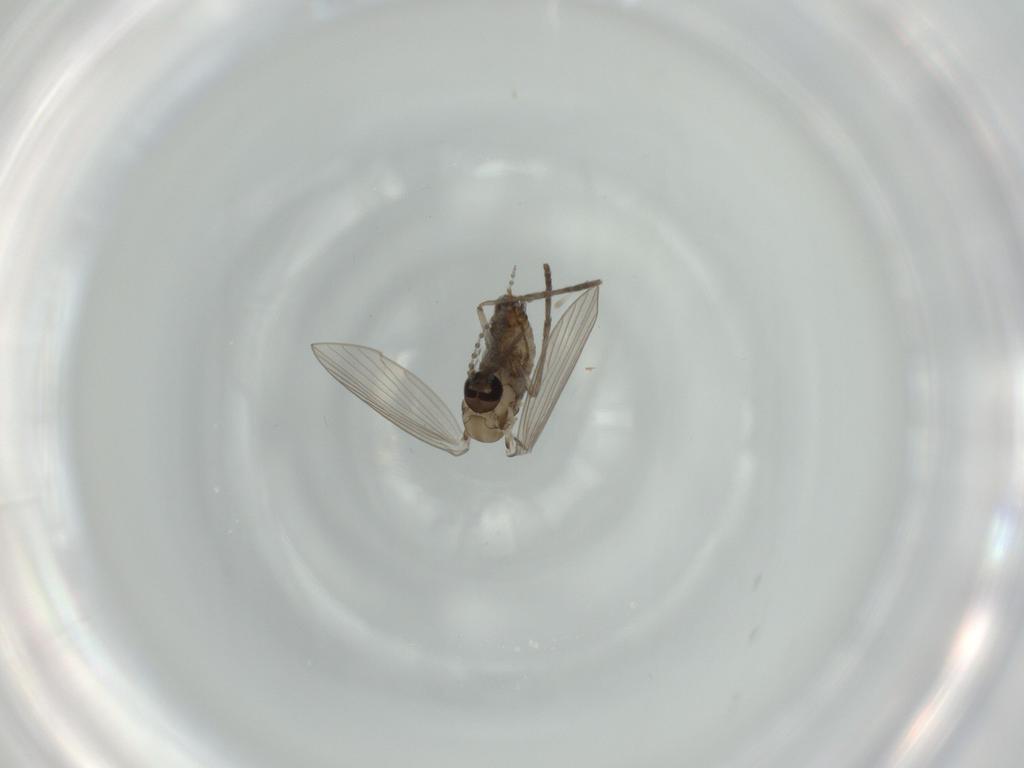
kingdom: Animalia
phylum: Arthropoda
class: Insecta
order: Diptera
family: Psychodidae
